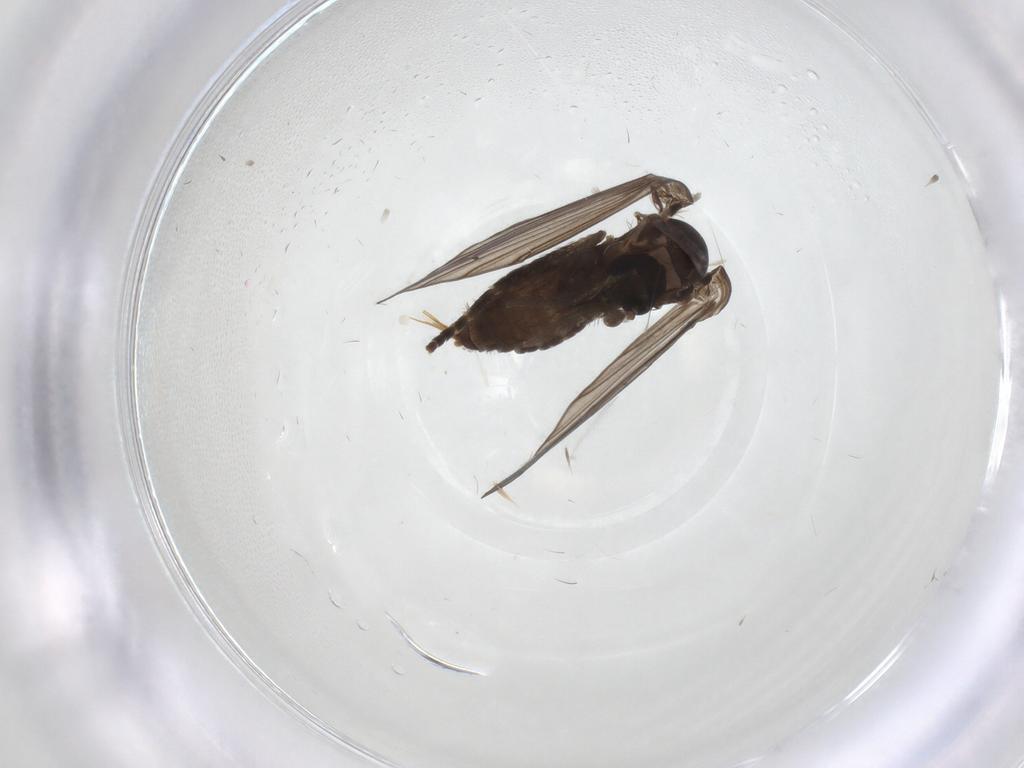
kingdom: Animalia
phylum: Arthropoda
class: Insecta
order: Diptera
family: Psychodidae
